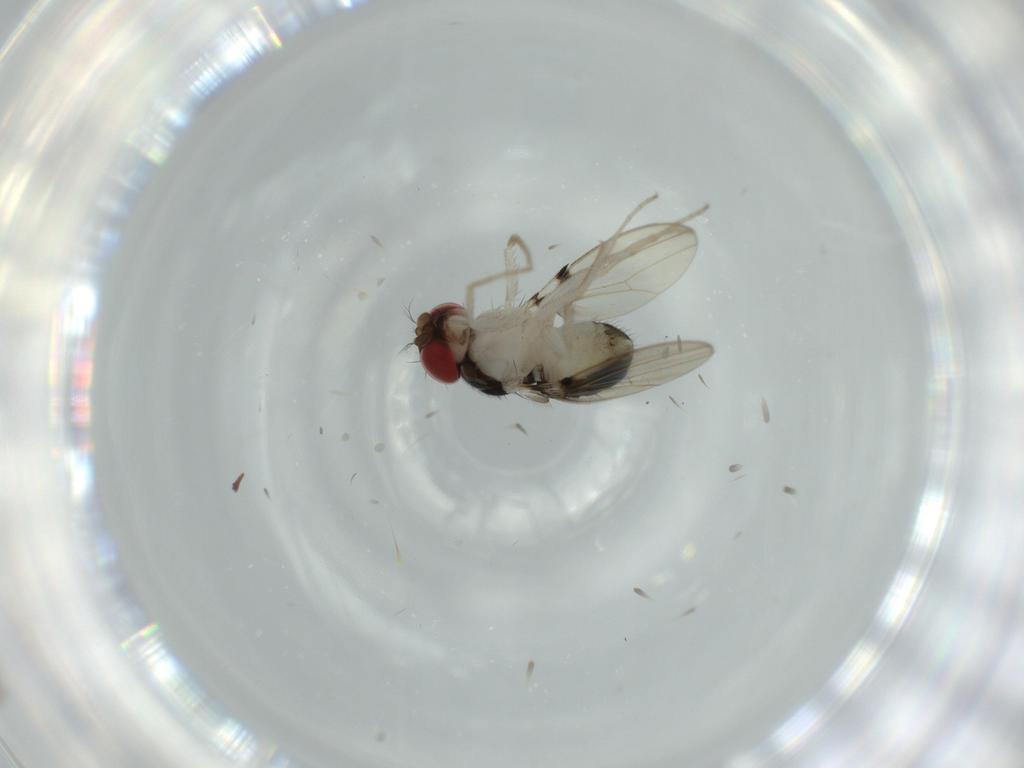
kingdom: Animalia
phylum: Arthropoda
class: Insecta
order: Diptera
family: Drosophilidae
